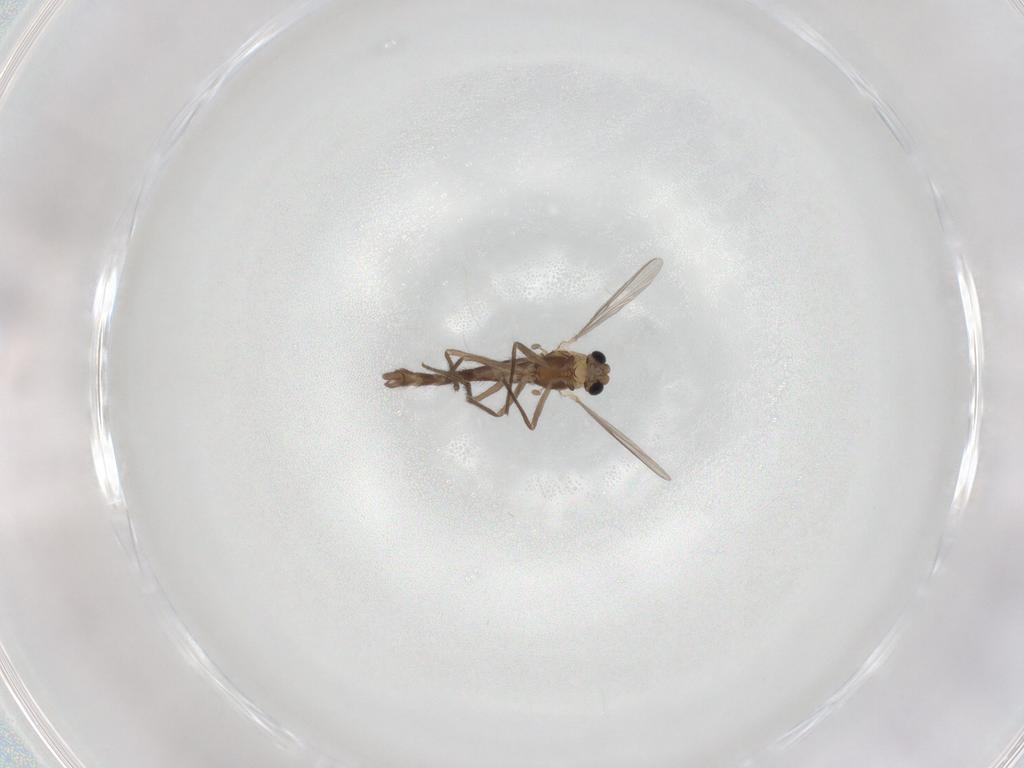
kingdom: Animalia
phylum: Arthropoda
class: Insecta
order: Diptera
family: Chironomidae
